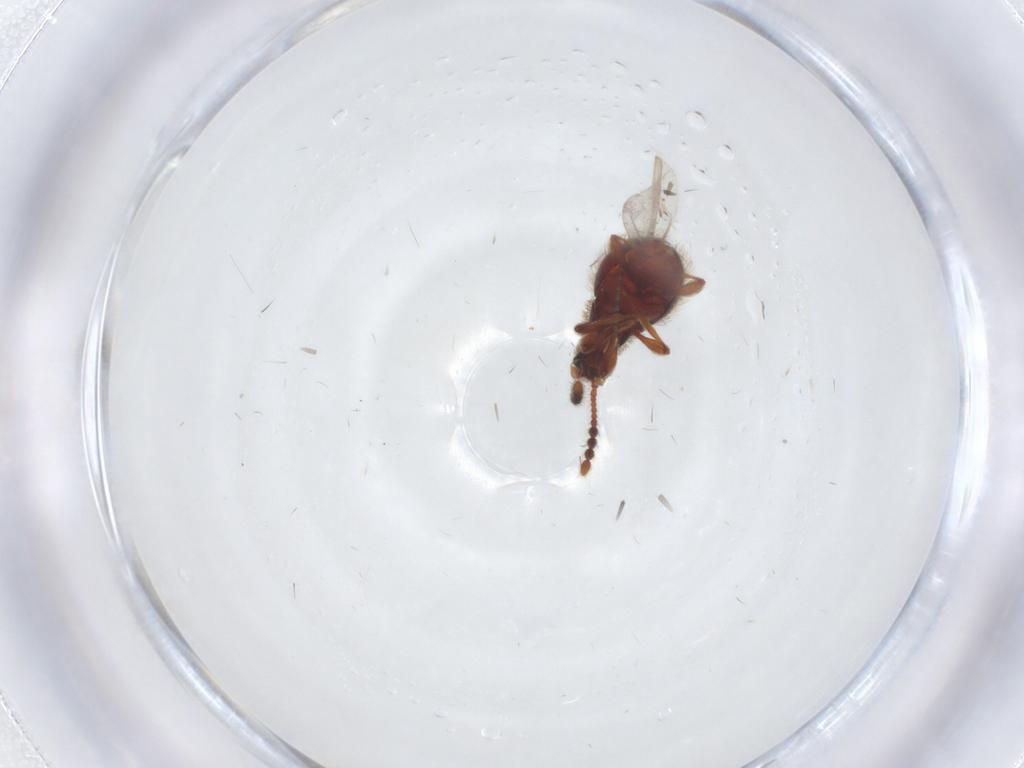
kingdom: Animalia
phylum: Arthropoda
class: Insecta
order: Coleoptera
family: Staphylinidae
